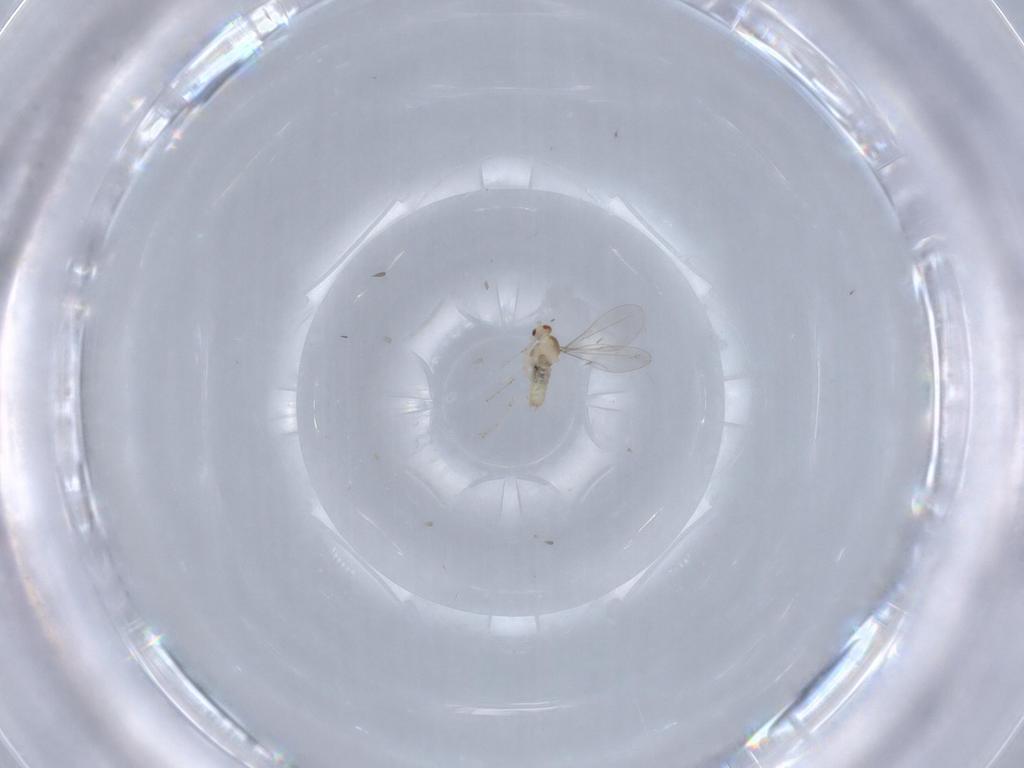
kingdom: Animalia
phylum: Arthropoda
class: Insecta
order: Diptera
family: Cecidomyiidae
